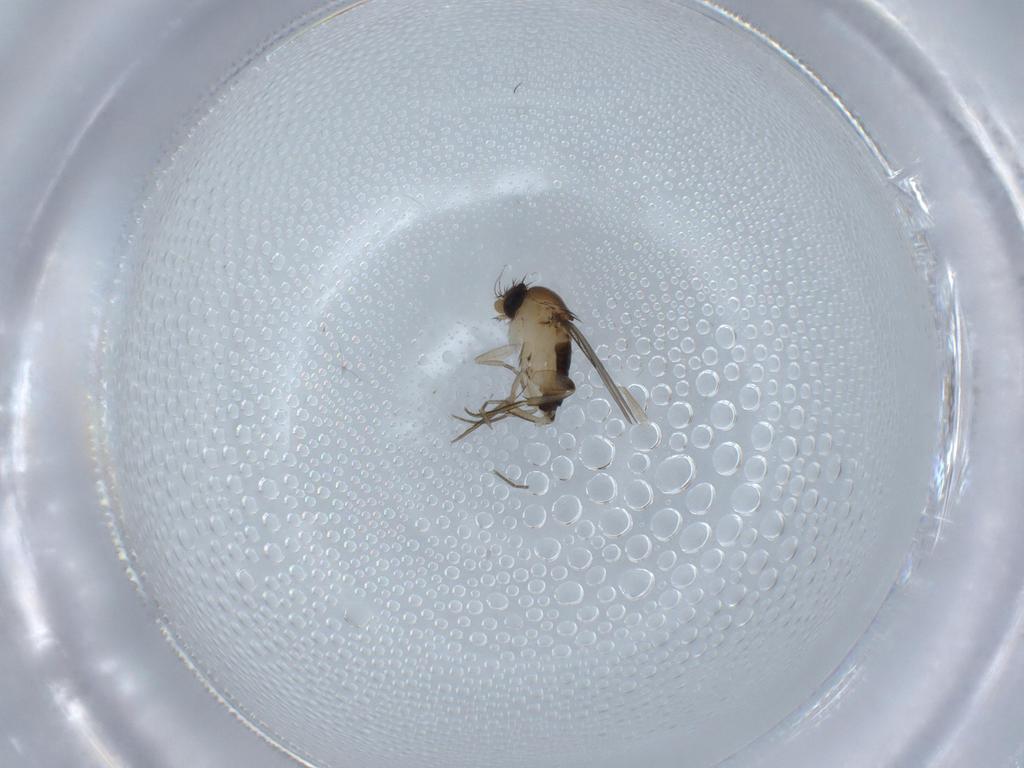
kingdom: Animalia
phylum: Arthropoda
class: Insecta
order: Diptera
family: Phoridae
